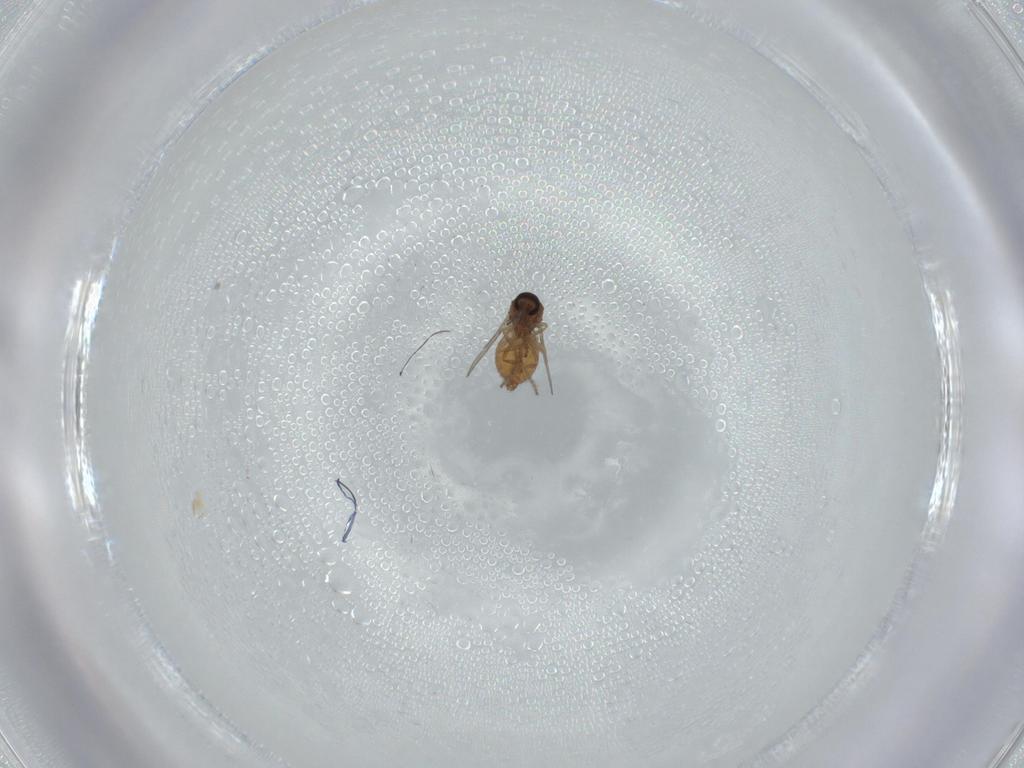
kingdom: Animalia
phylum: Arthropoda
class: Insecta
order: Diptera
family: Ceratopogonidae
